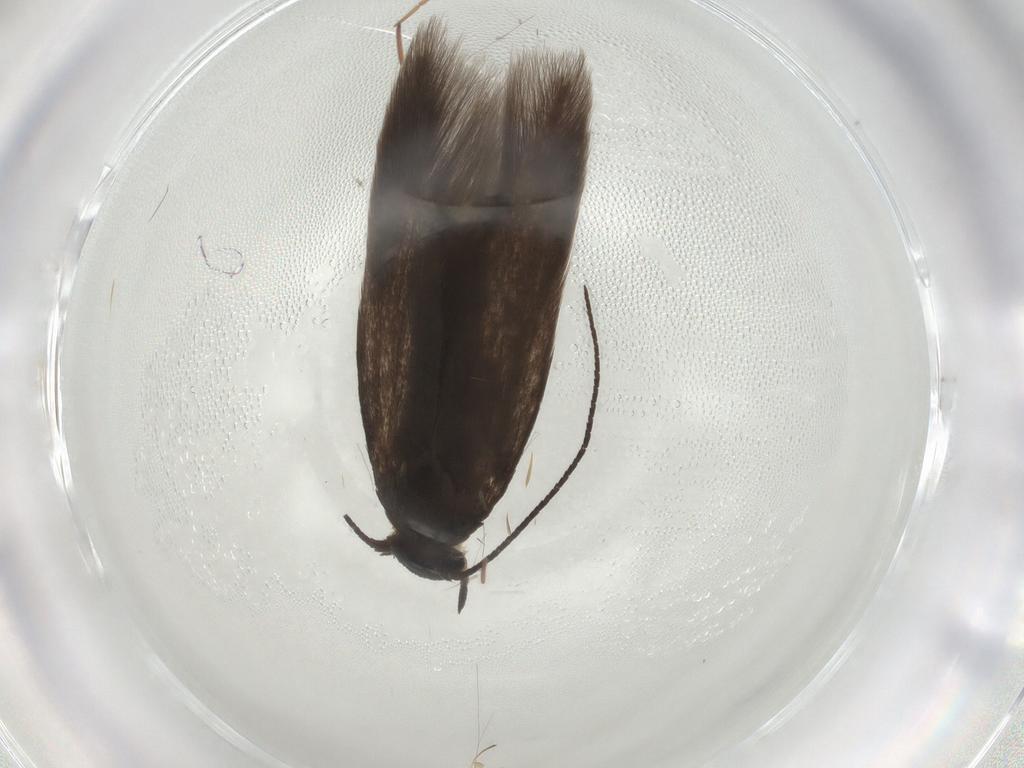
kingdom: Animalia
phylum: Arthropoda
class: Insecta
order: Lepidoptera
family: Scythrididae
